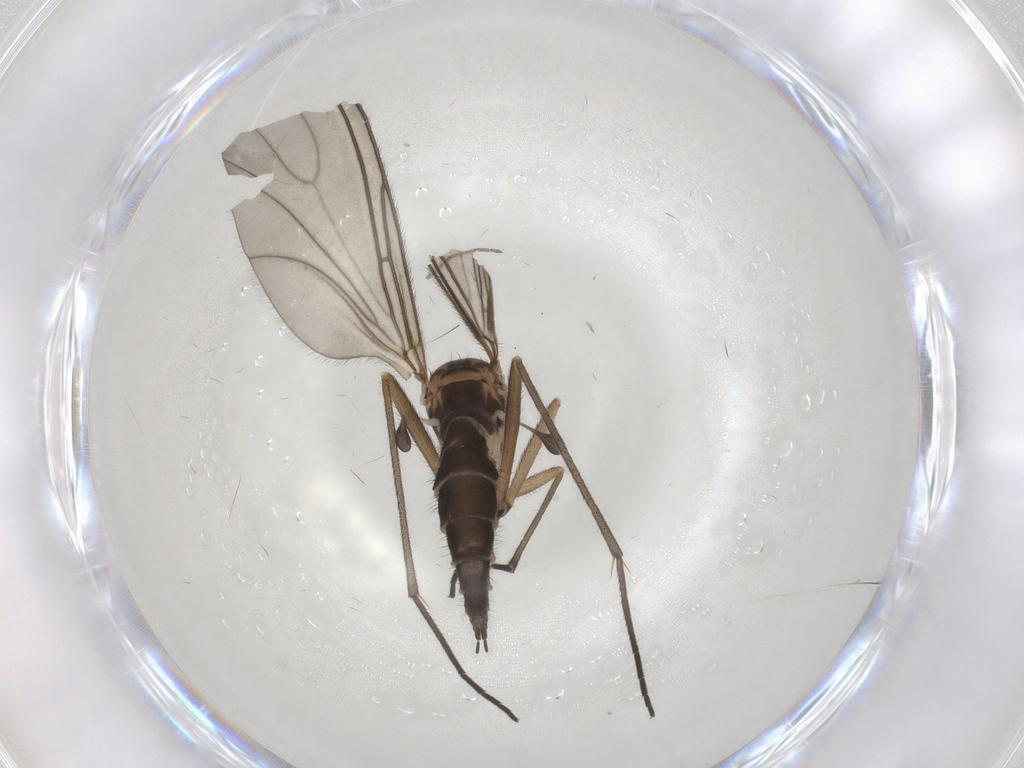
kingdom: Animalia
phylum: Arthropoda
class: Insecta
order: Diptera
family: Sciaridae
